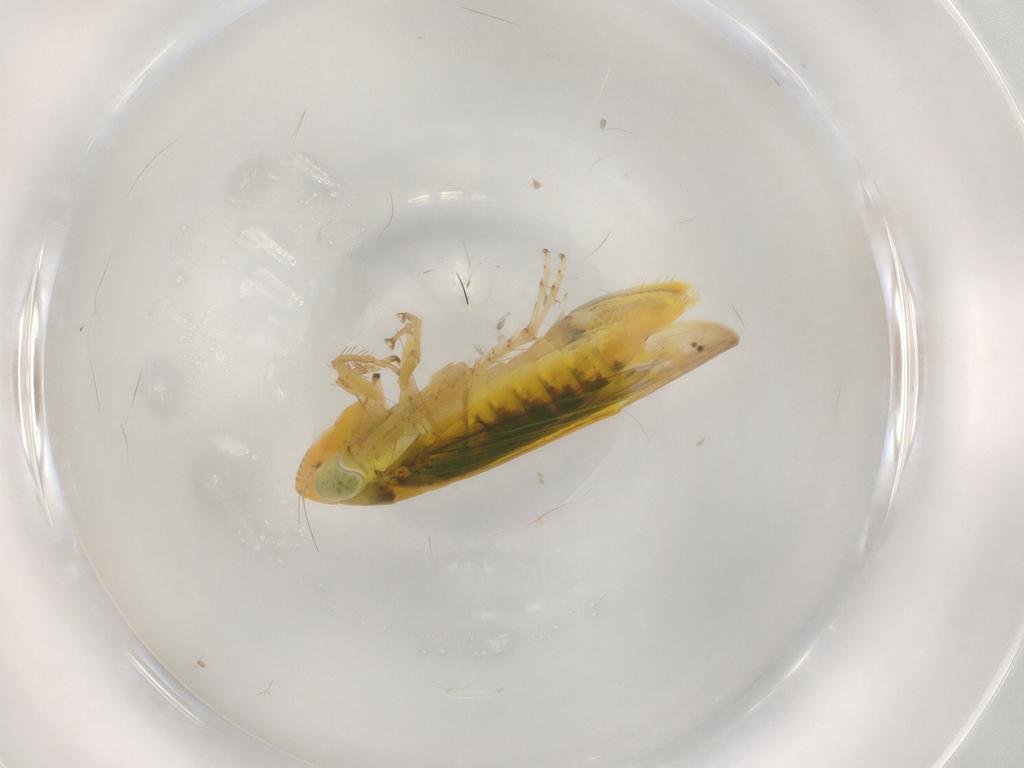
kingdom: Animalia
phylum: Arthropoda
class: Insecta
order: Hemiptera
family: Cicadellidae
